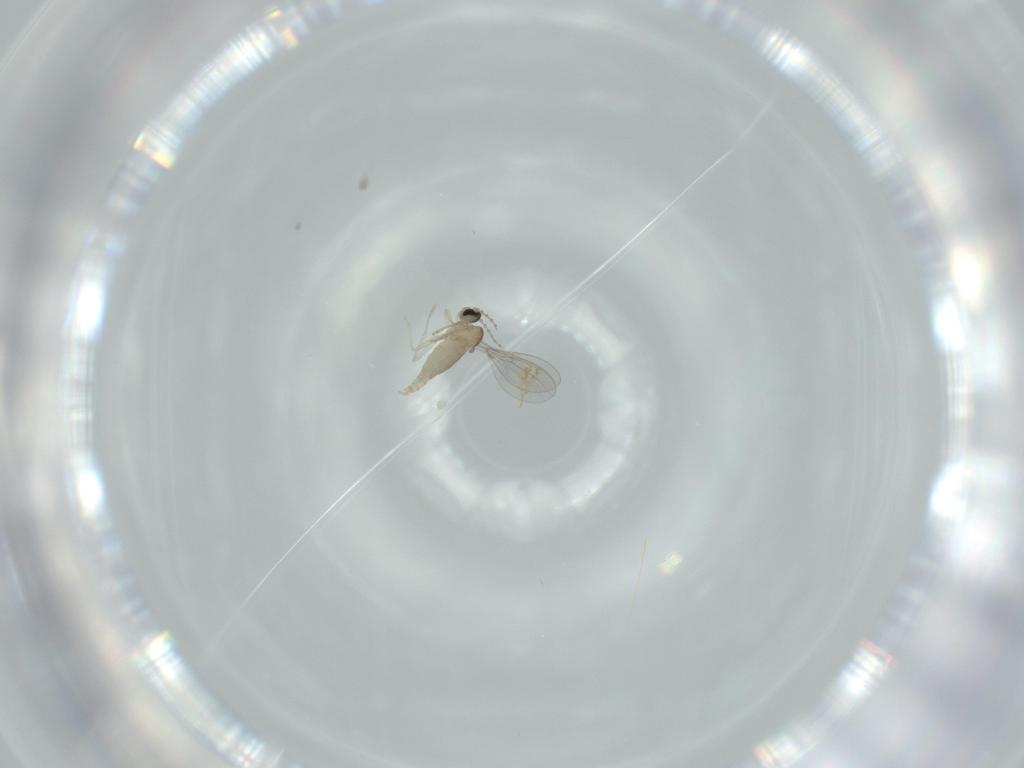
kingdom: Animalia
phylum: Arthropoda
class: Insecta
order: Diptera
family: Cecidomyiidae
